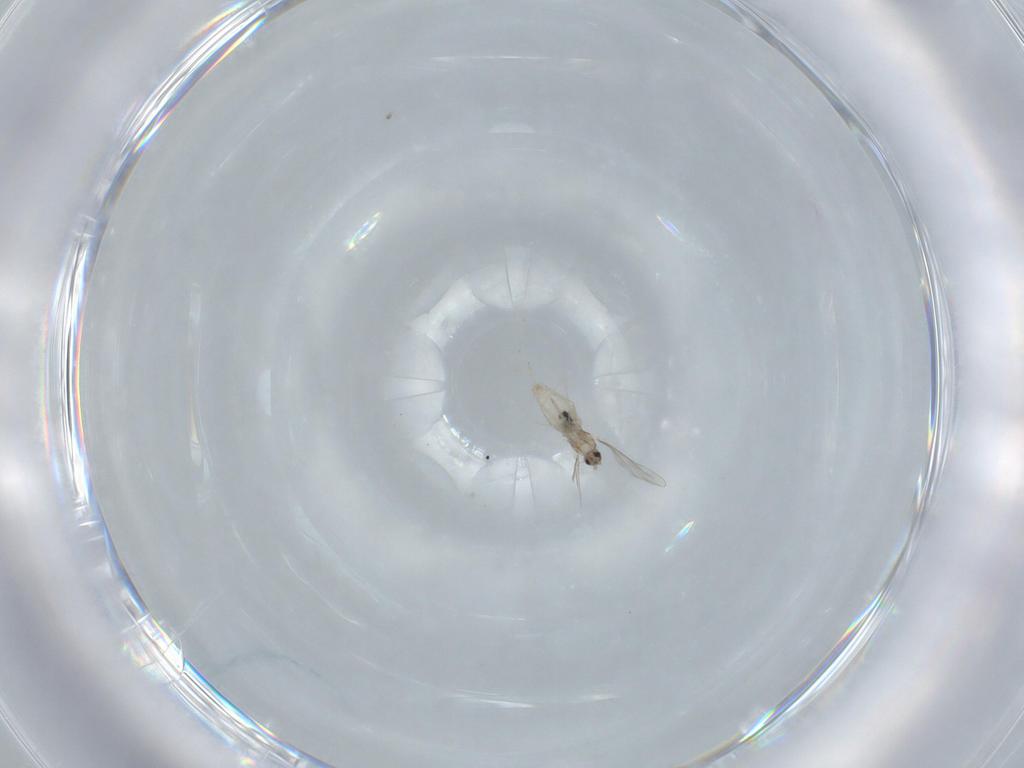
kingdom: Animalia
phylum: Arthropoda
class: Insecta
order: Diptera
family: Cecidomyiidae
